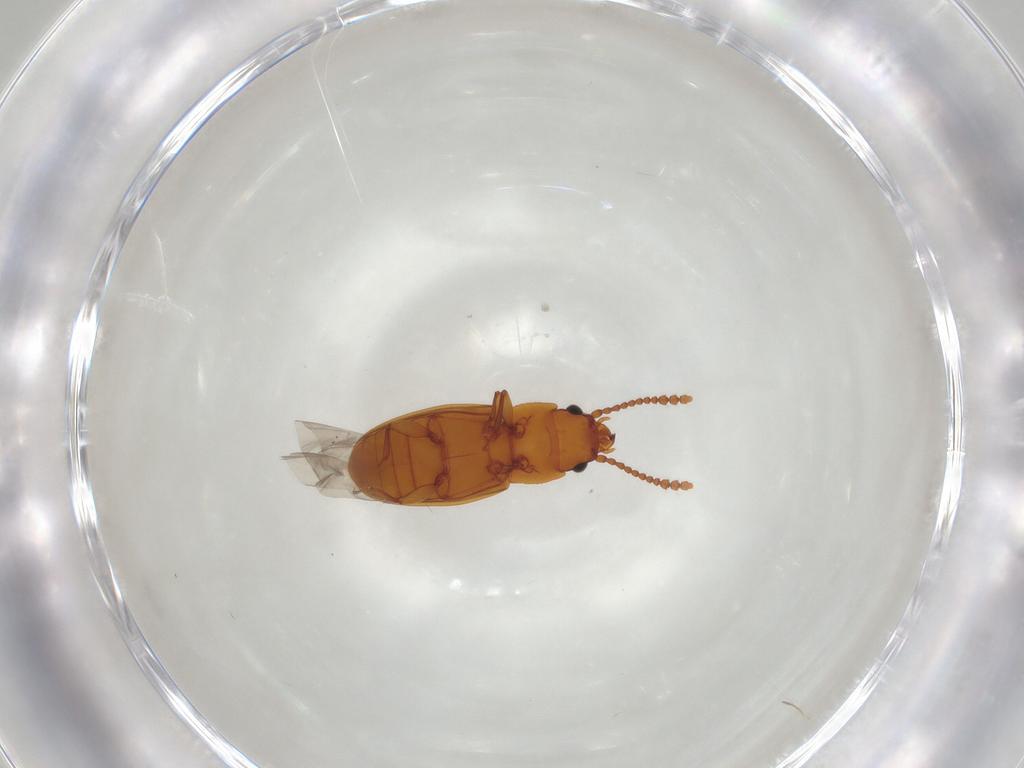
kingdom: Animalia
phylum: Arthropoda
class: Insecta
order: Coleoptera
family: Laemophloeidae
